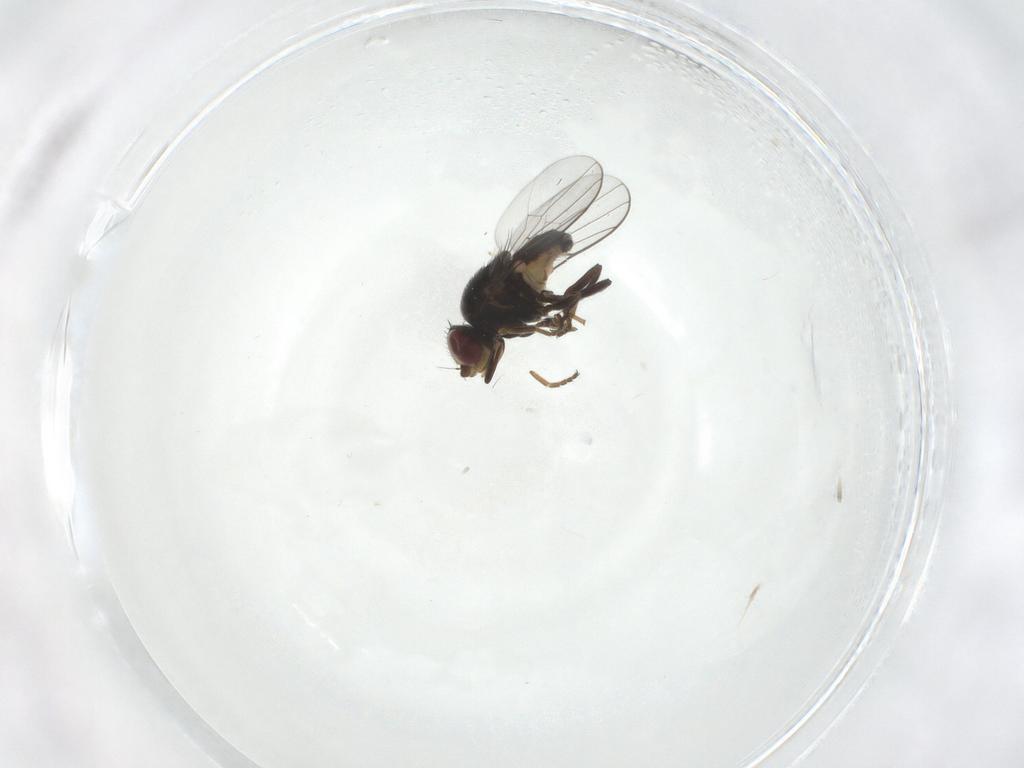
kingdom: Animalia
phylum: Arthropoda
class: Insecta
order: Diptera
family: Chloropidae
